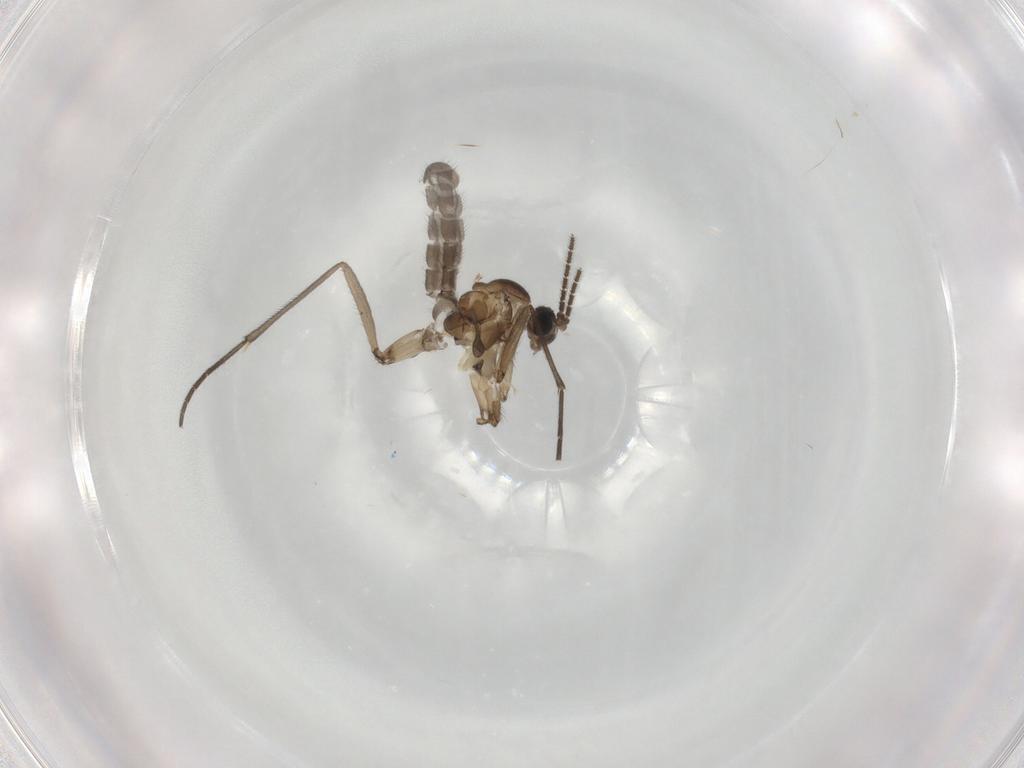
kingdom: Animalia
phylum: Arthropoda
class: Insecta
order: Diptera
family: Sciaridae
